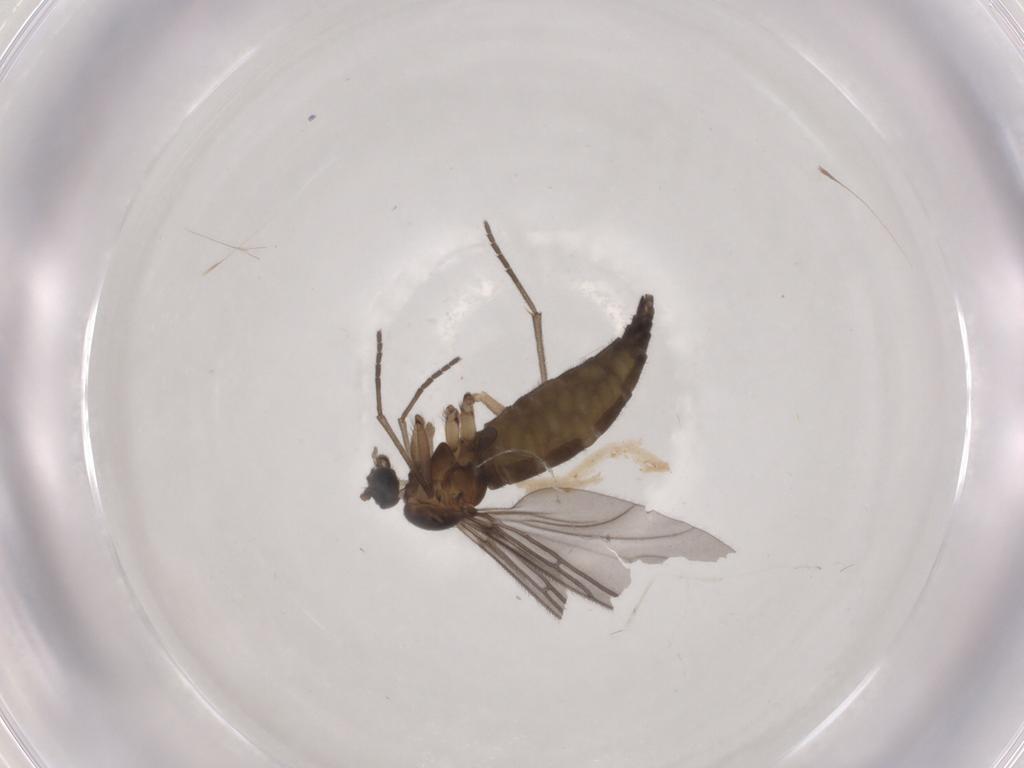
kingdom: Animalia
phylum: Arthropoda
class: Insecta
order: Diptera
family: Sciaridae
